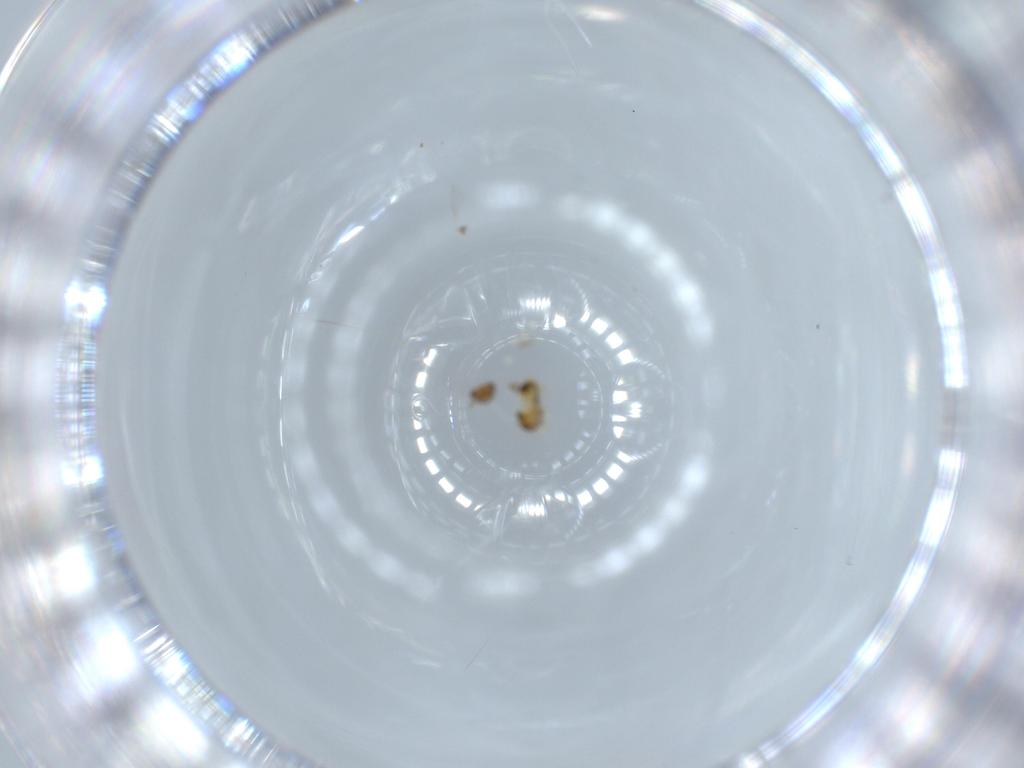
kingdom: Animalia
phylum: Arthropoda
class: Insecta
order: Hymenoptera
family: Aphelinidae
